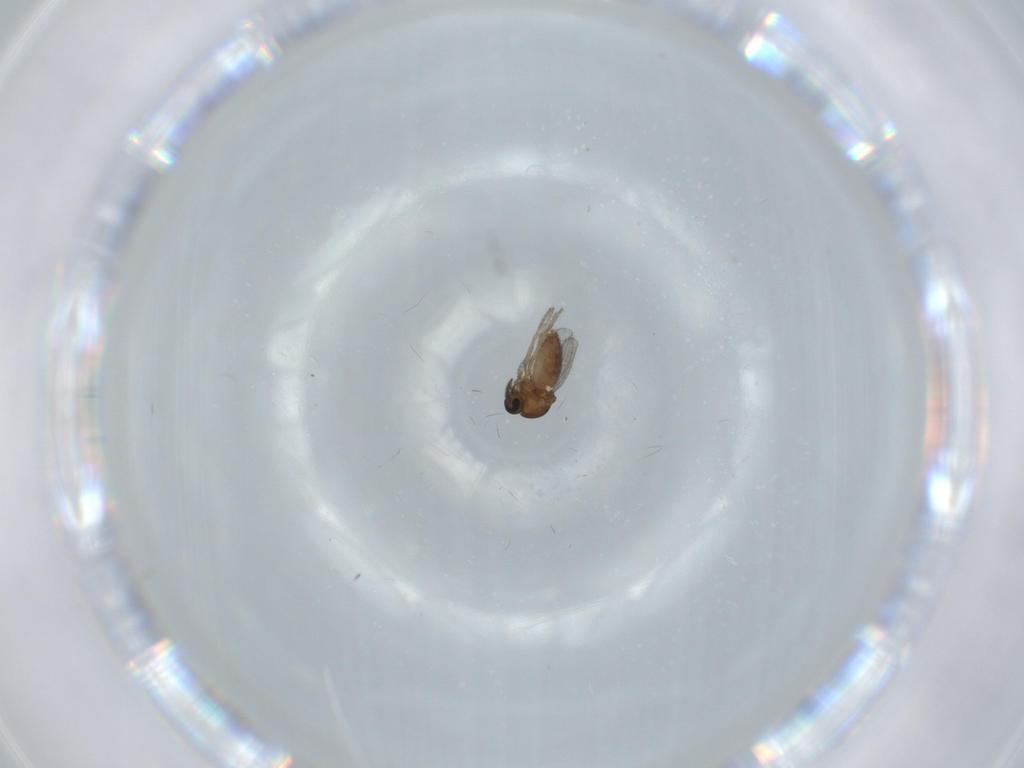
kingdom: Animalia
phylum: Arthropoda
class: Insecta
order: Diptera
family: Ceratopogonidae
